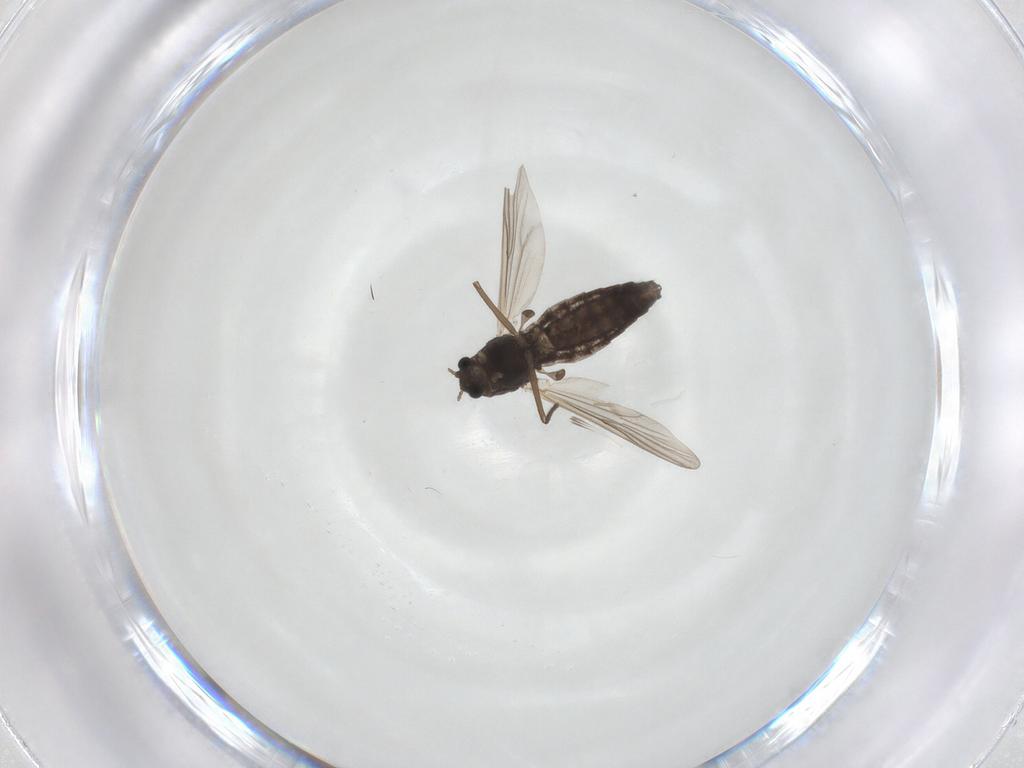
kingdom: Animalia
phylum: Arthropoda
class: Insecta
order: Diptera
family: Chironomidae
